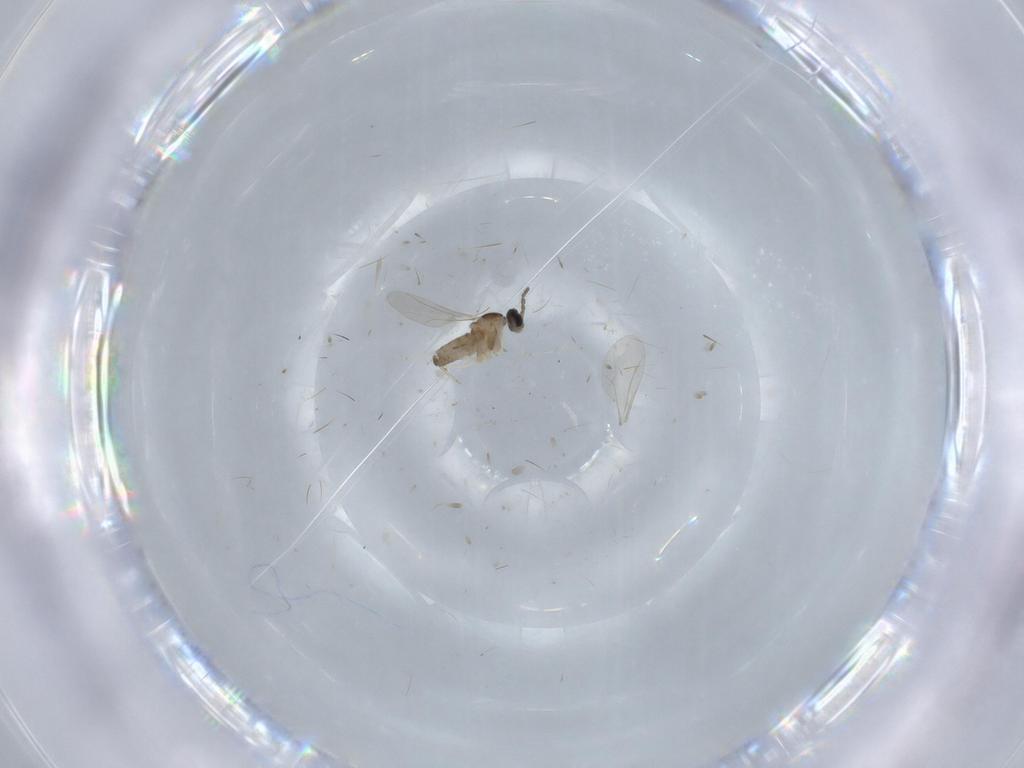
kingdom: Animalia
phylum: Arthropoda
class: Insecta
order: Diptera
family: Cecidomyiidae
